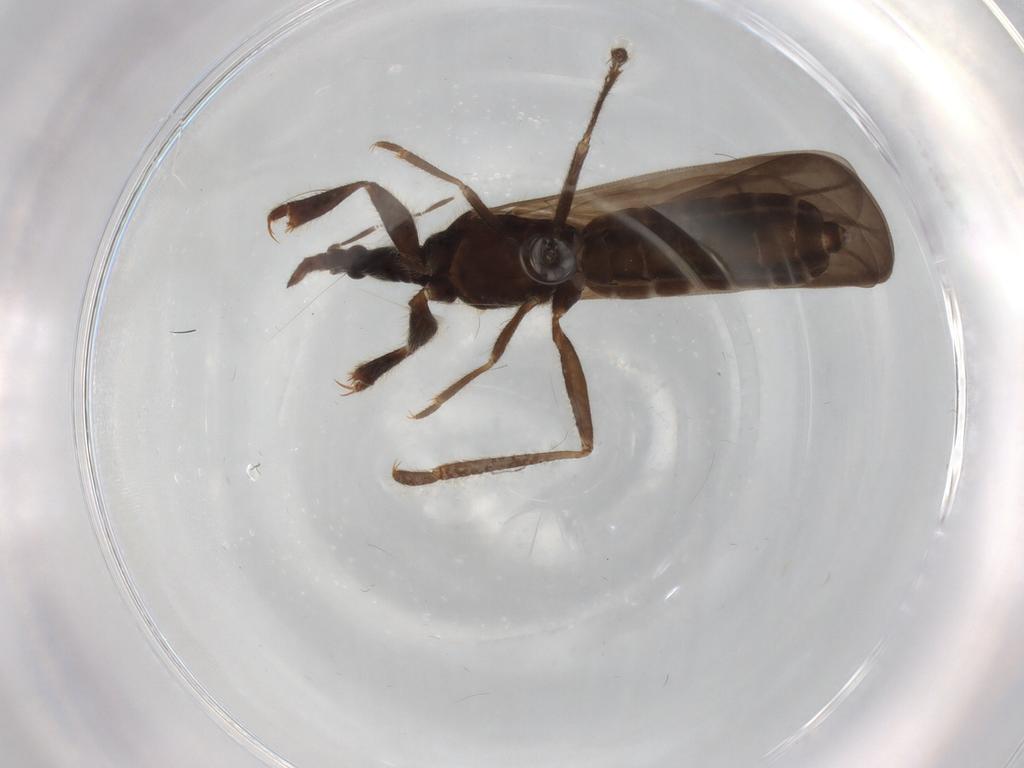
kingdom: Animalia
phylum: Arthropoda
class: Insecta
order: Hemiptera
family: Enicocephalidae
